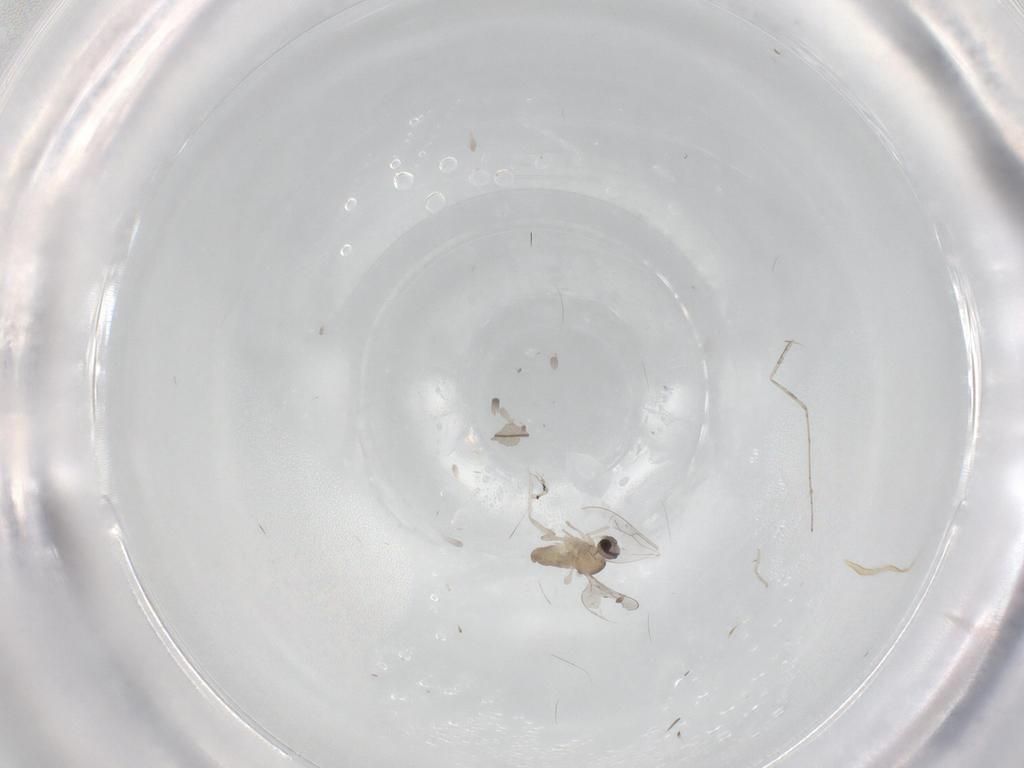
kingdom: Animalia
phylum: Arthropoda
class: Insecta
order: Diptera
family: Cecidomyiidae
